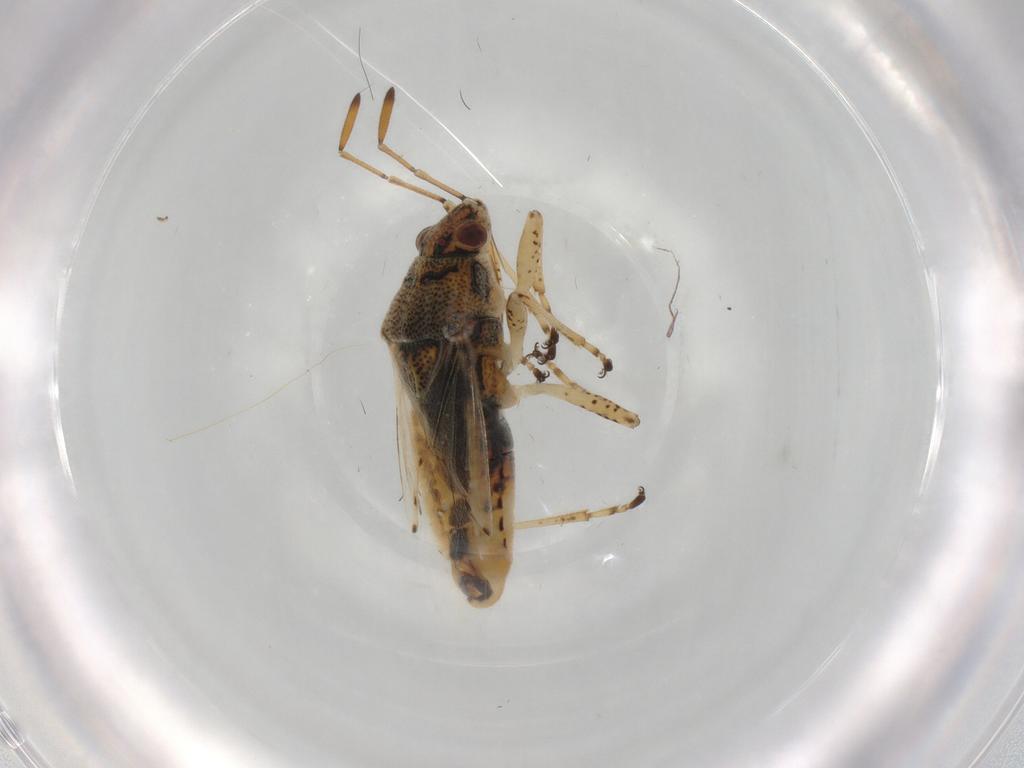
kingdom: Animalia
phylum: Arthropoda
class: Insecta
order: Hemiptera
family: Lygaeidae
